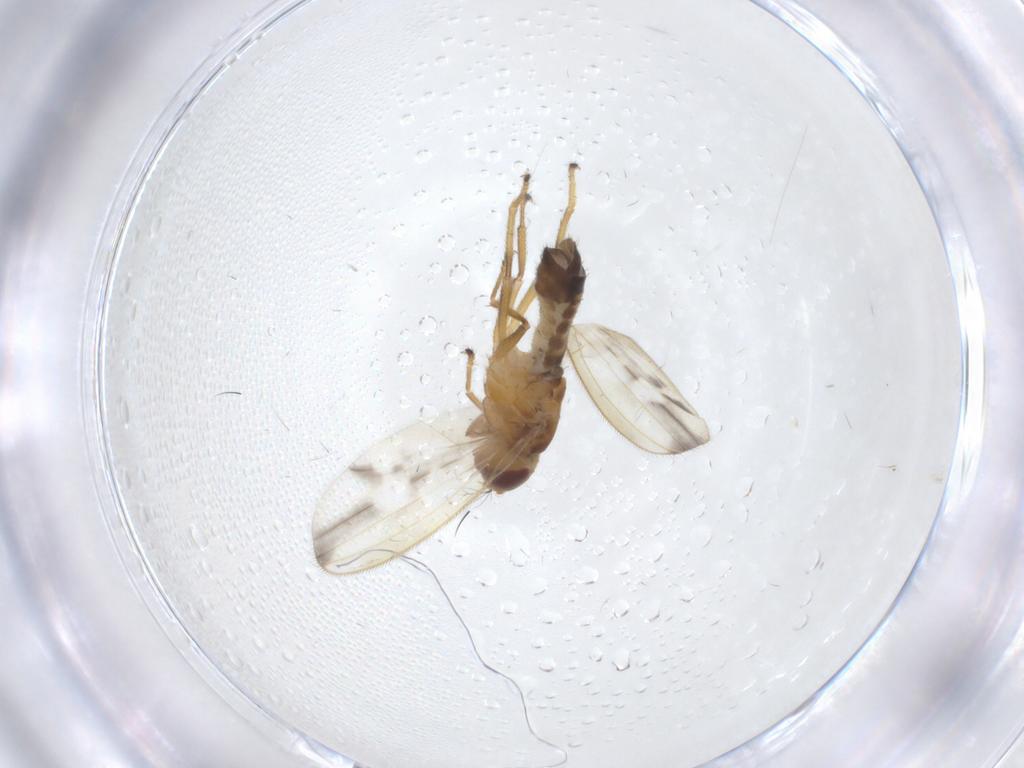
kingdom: Animalia
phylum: Arthropoda
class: Insecta
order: Diptera
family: Periscelididae
